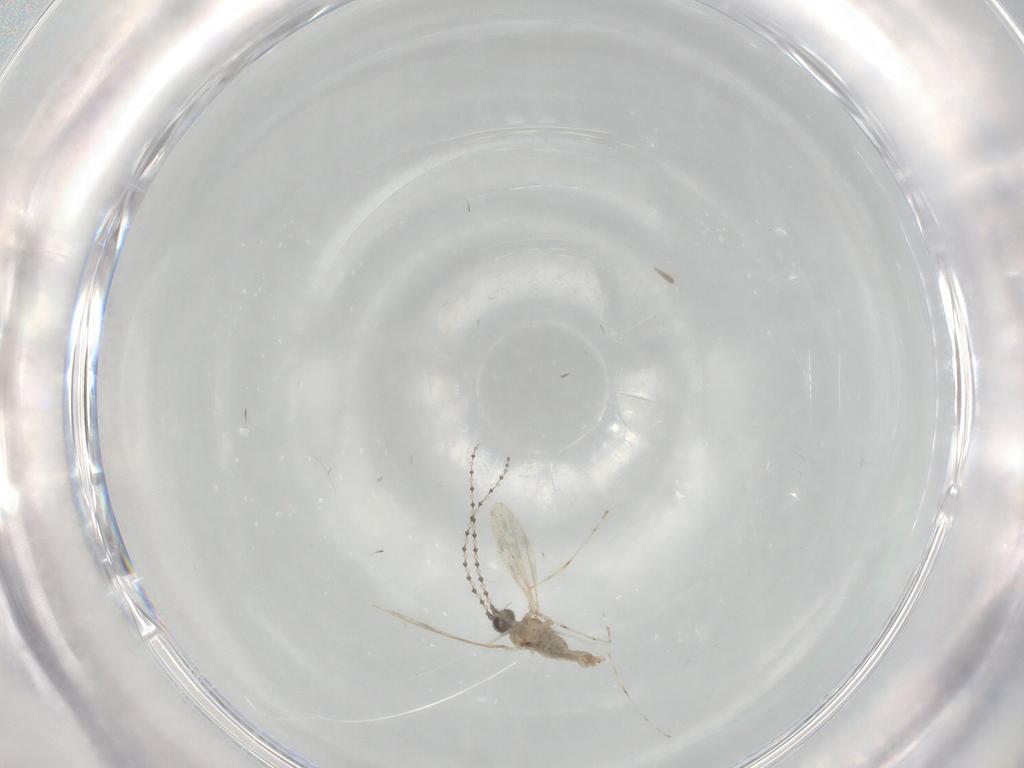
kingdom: Animalia
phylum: Arthropoda
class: Insecta
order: Diptera
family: Cecidomyiidae
